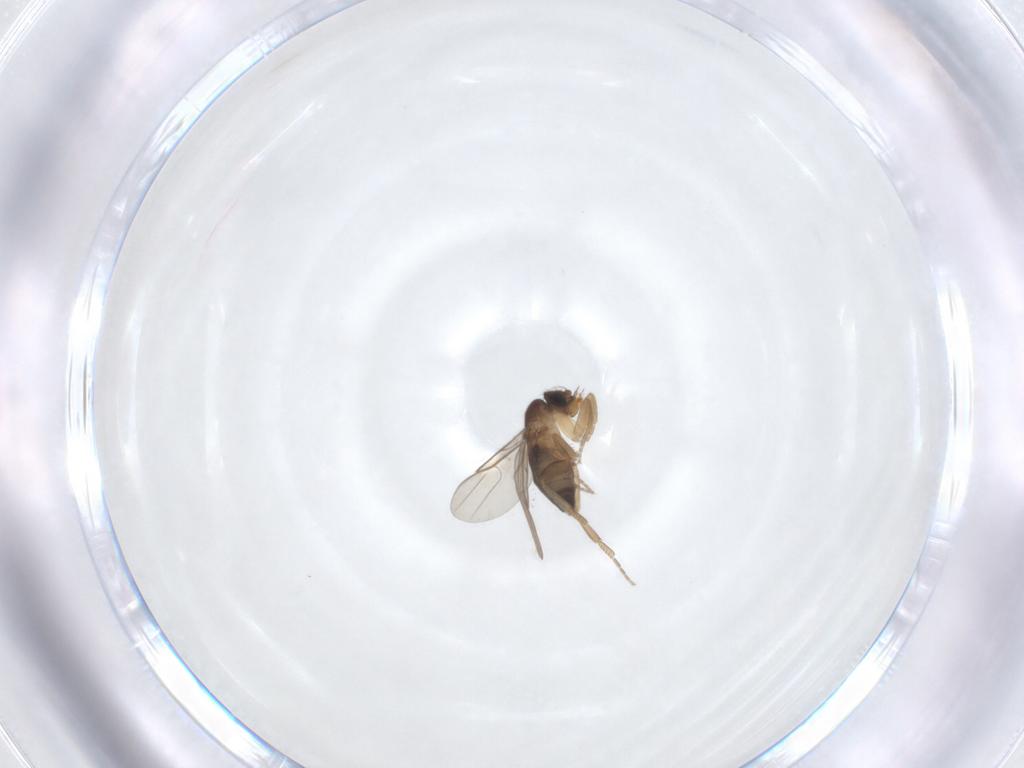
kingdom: Animalia
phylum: Arthropoda
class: Insecta
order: Diptera
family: Phoridae
